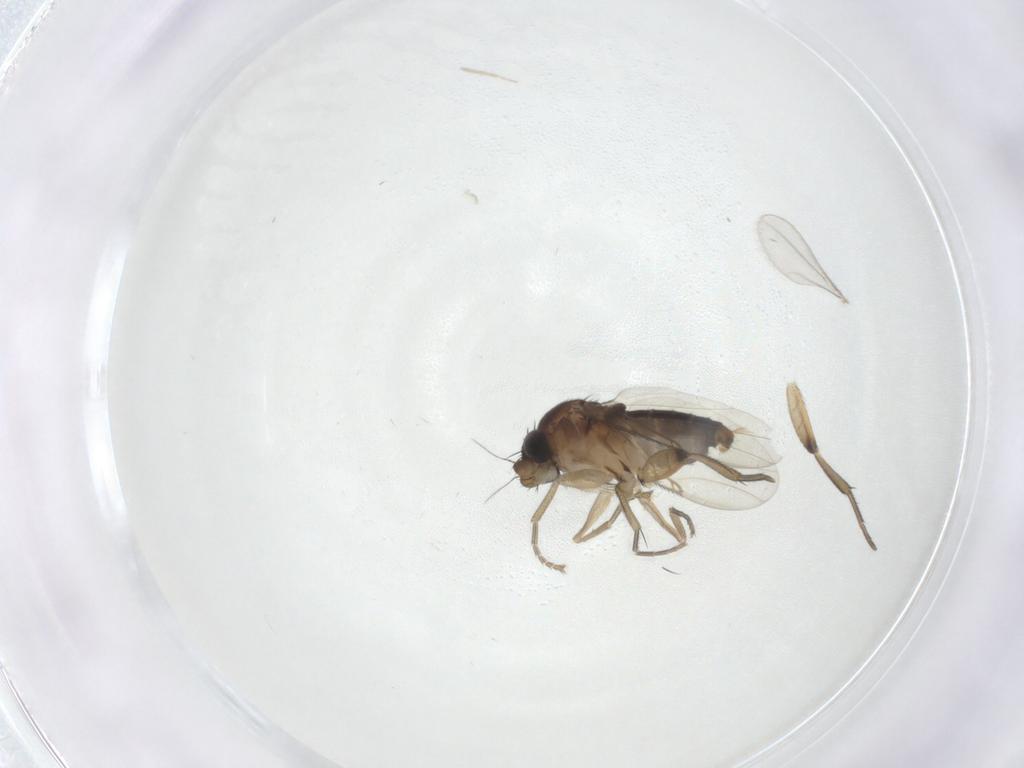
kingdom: Animalia
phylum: Arthropoda
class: Insecta
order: Diptera
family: Phoridae
